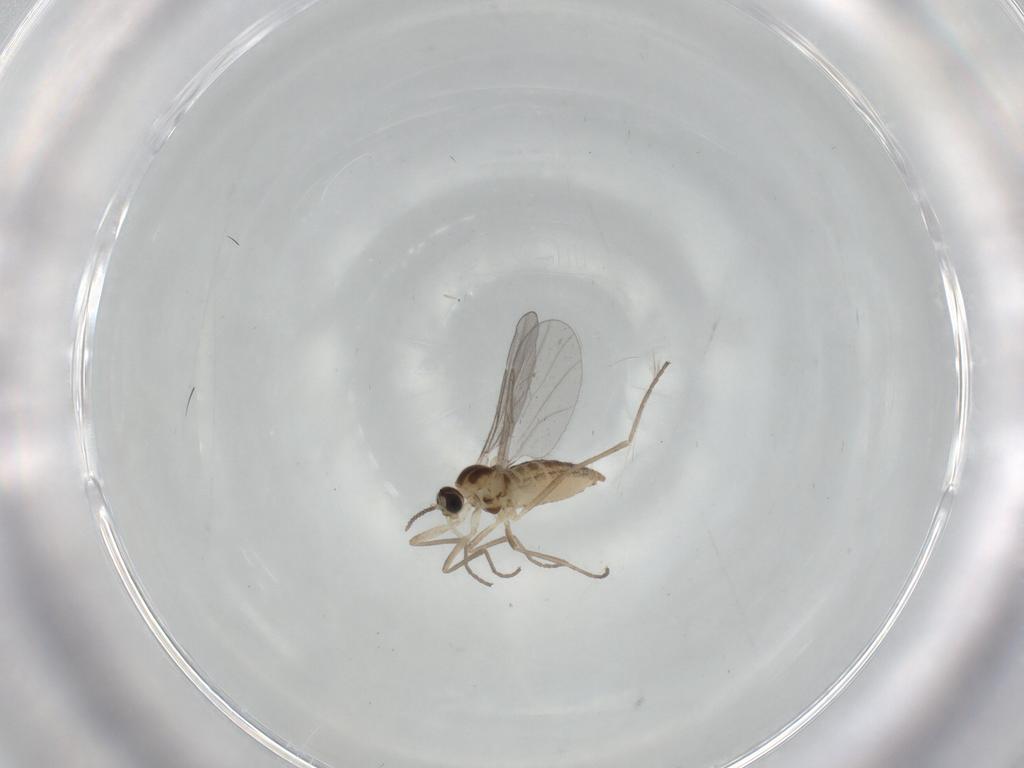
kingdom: Animalia
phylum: Arthropoda
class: Insecta
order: Diptera
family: Cecidomyiidae
